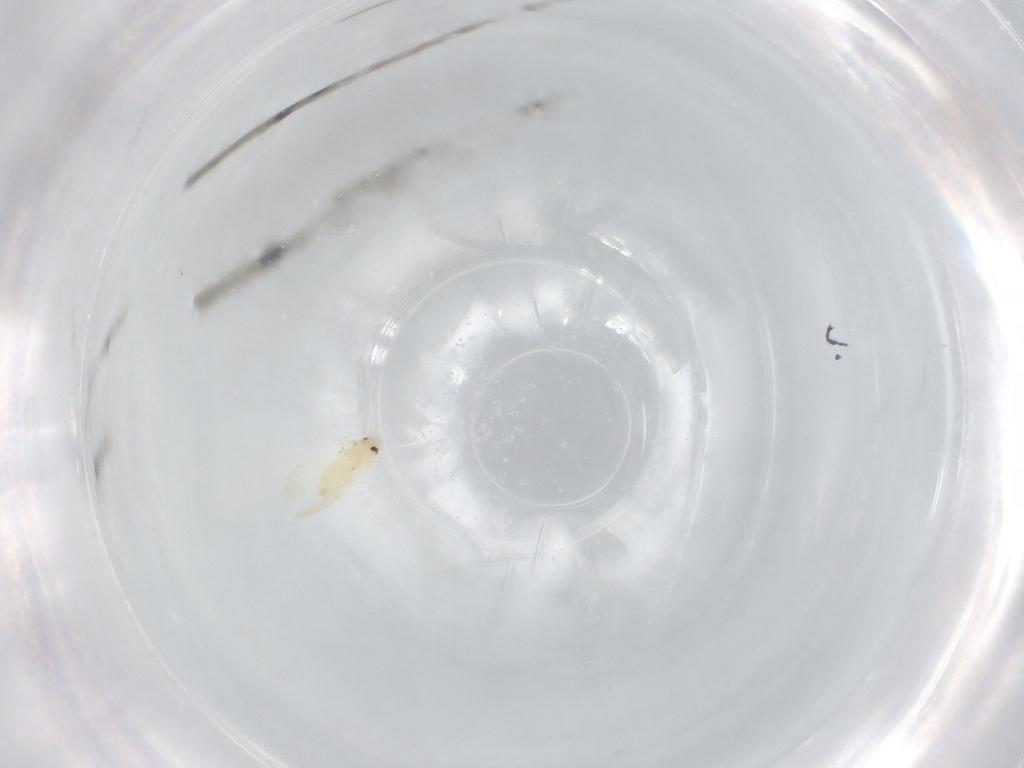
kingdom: Animalia
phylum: Arthropoda
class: Insecta
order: Hemiptera
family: Aleyrodidae
